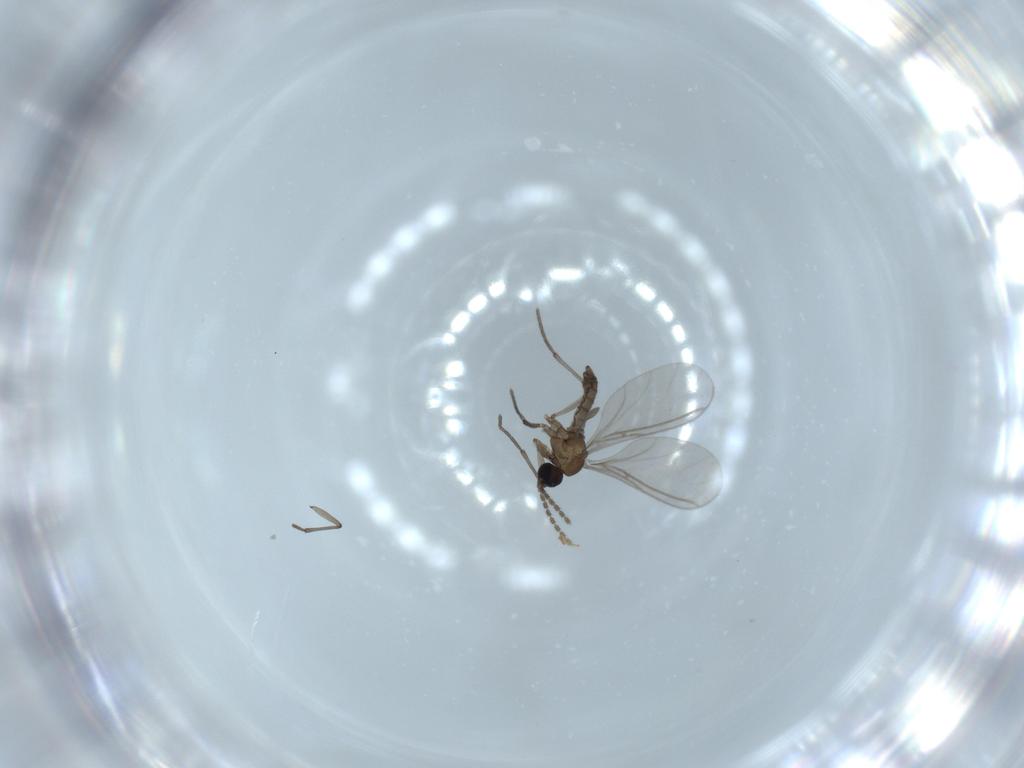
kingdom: Animalia
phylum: Arthropoda
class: Insecta
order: Diptera
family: Sciaridae
